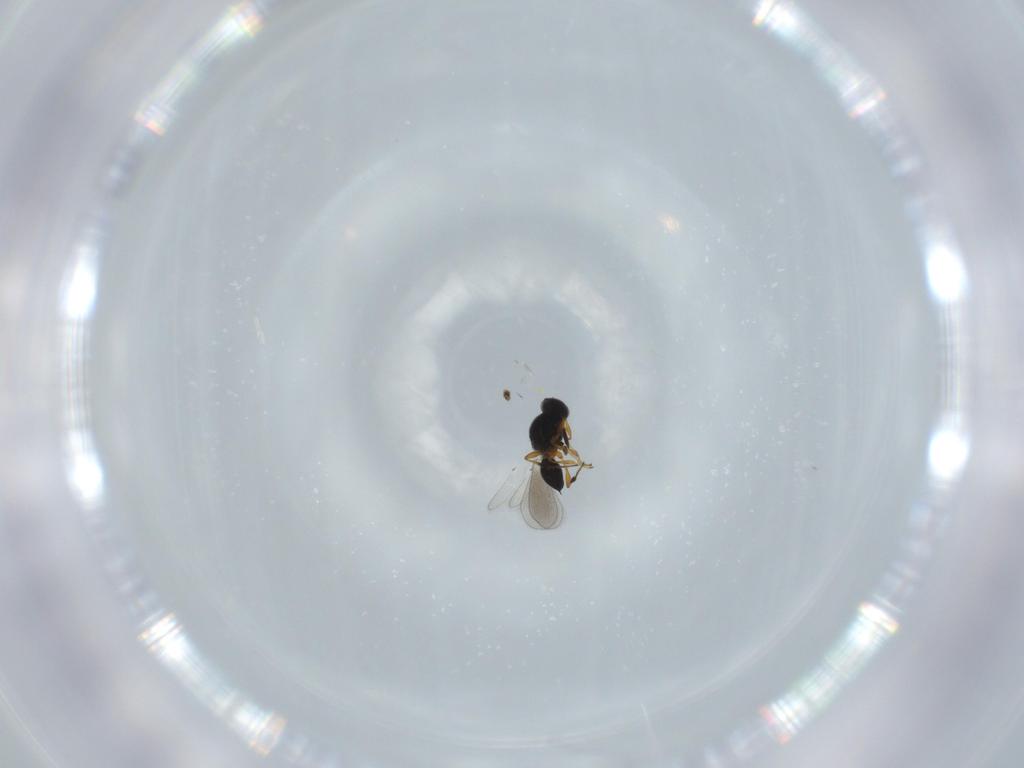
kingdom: Animalia
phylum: Arthropoda
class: Insecta
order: Hymenoptera
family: Platygastridae
